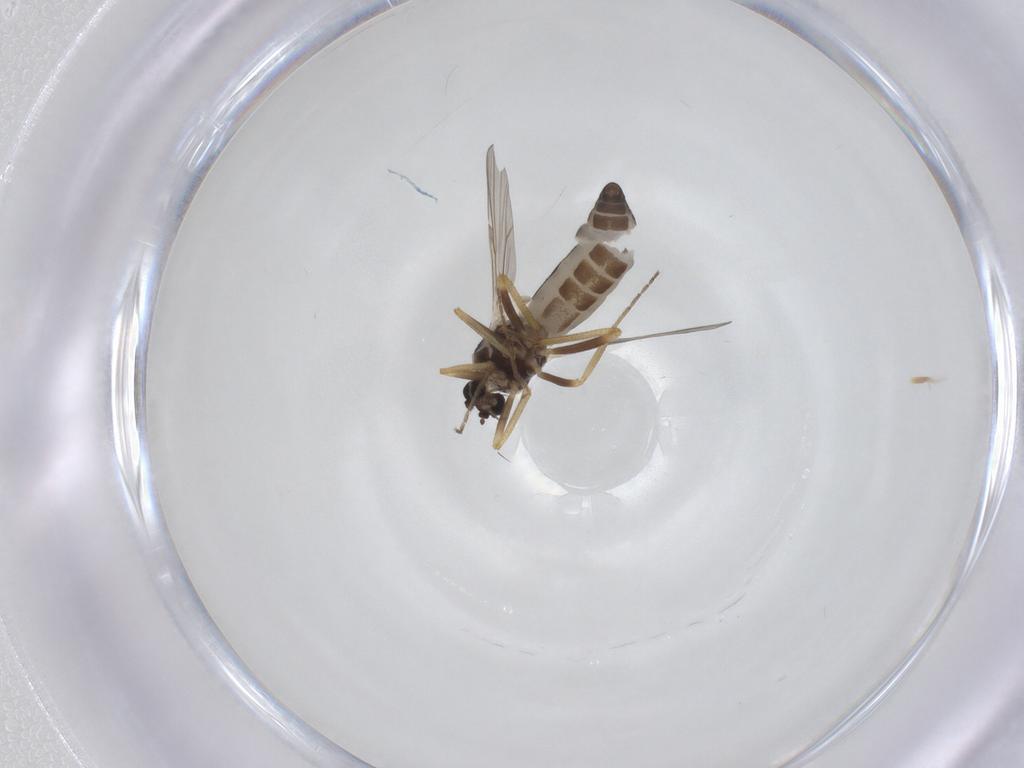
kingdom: Animalia
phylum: Arthropoda
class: Insecta
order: Diptera
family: Ceratopogonidae
